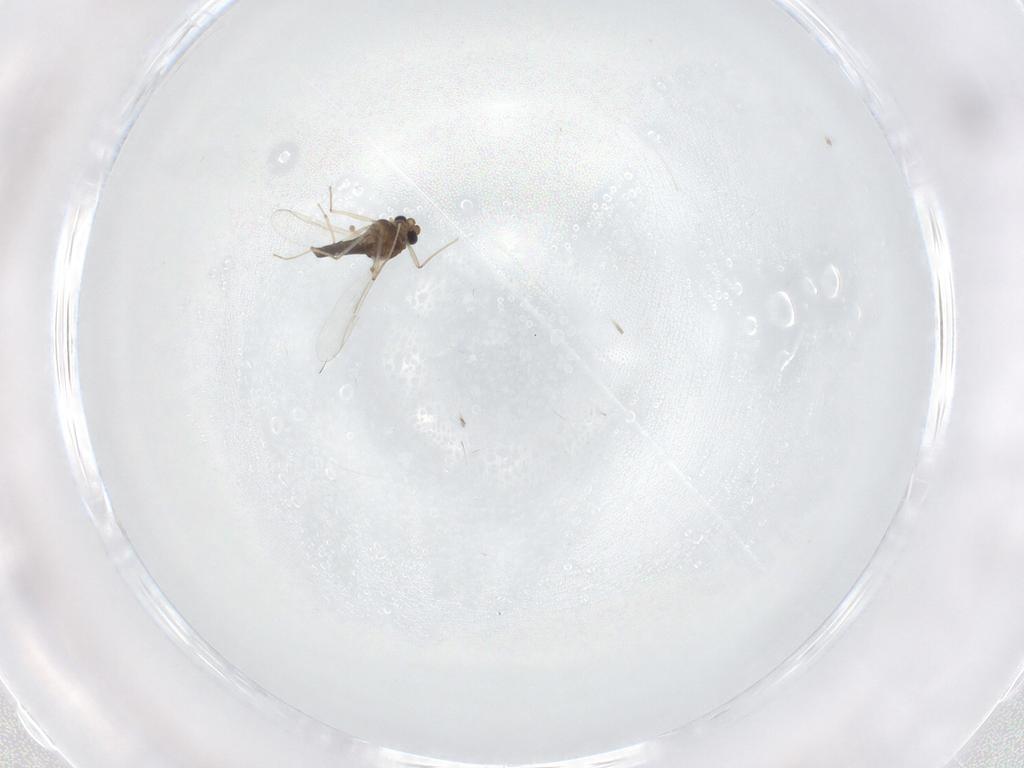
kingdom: Animalia
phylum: Arthropoda
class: Insecta
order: Diptera
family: Chironomidae
